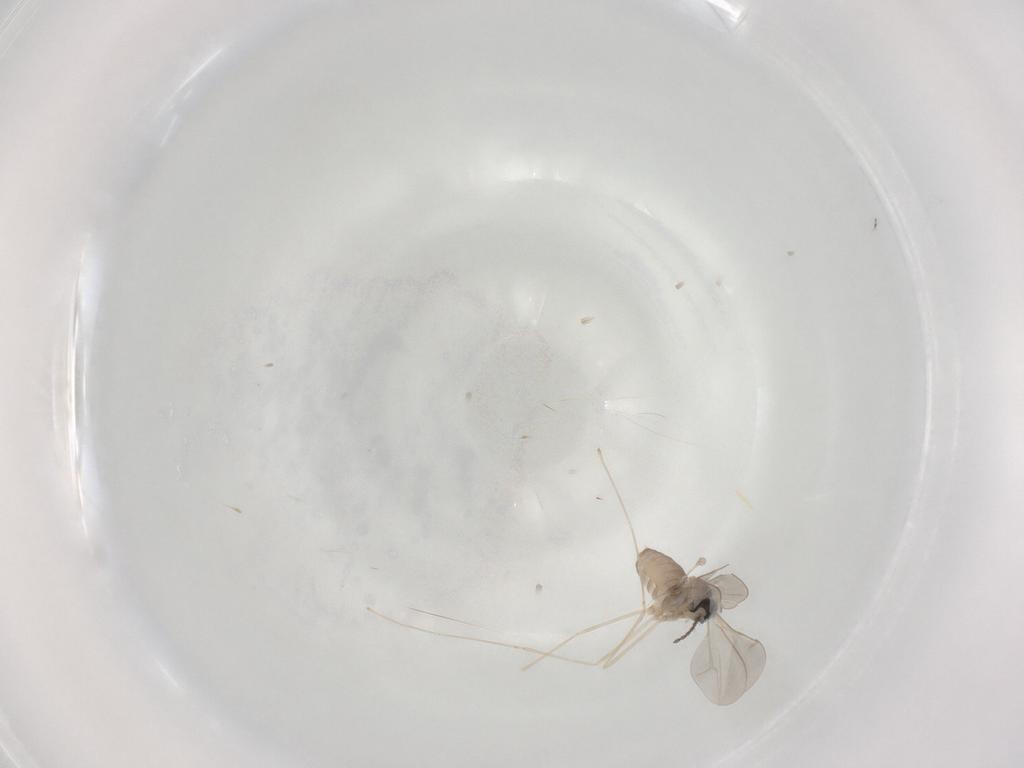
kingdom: Animalia
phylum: Arthropoda
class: Insecta
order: Diptera
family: Cecidomyiidae
